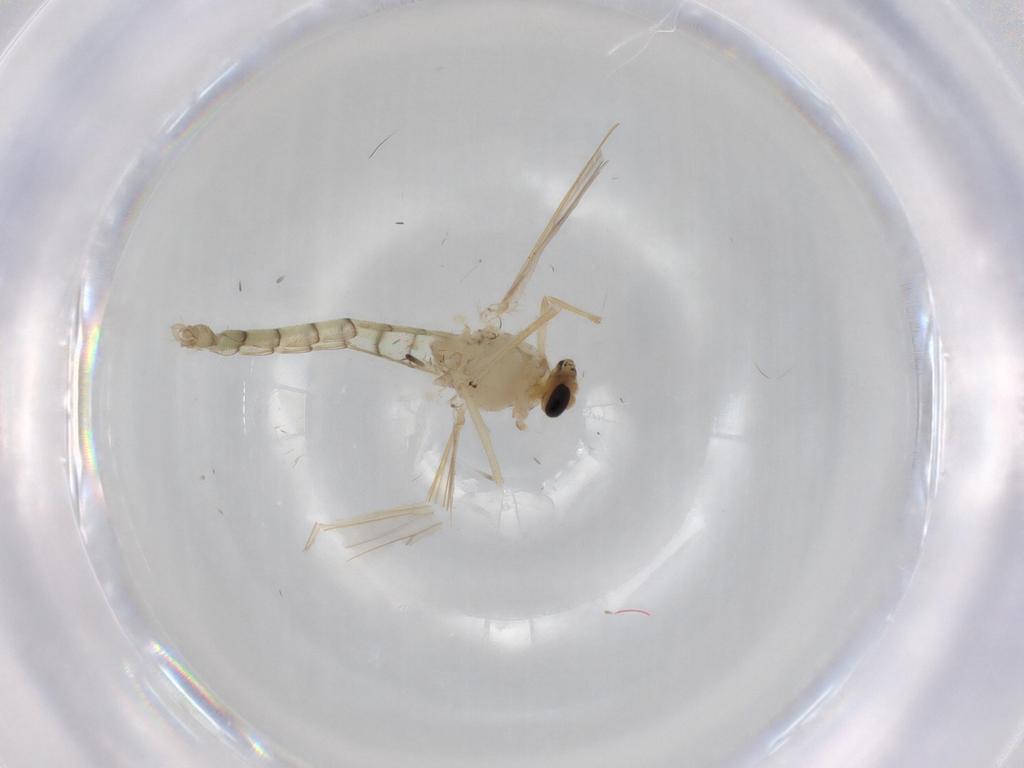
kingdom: Animalia
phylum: Arthropoda
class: Insecta
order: Diptera
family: Chironomidae
